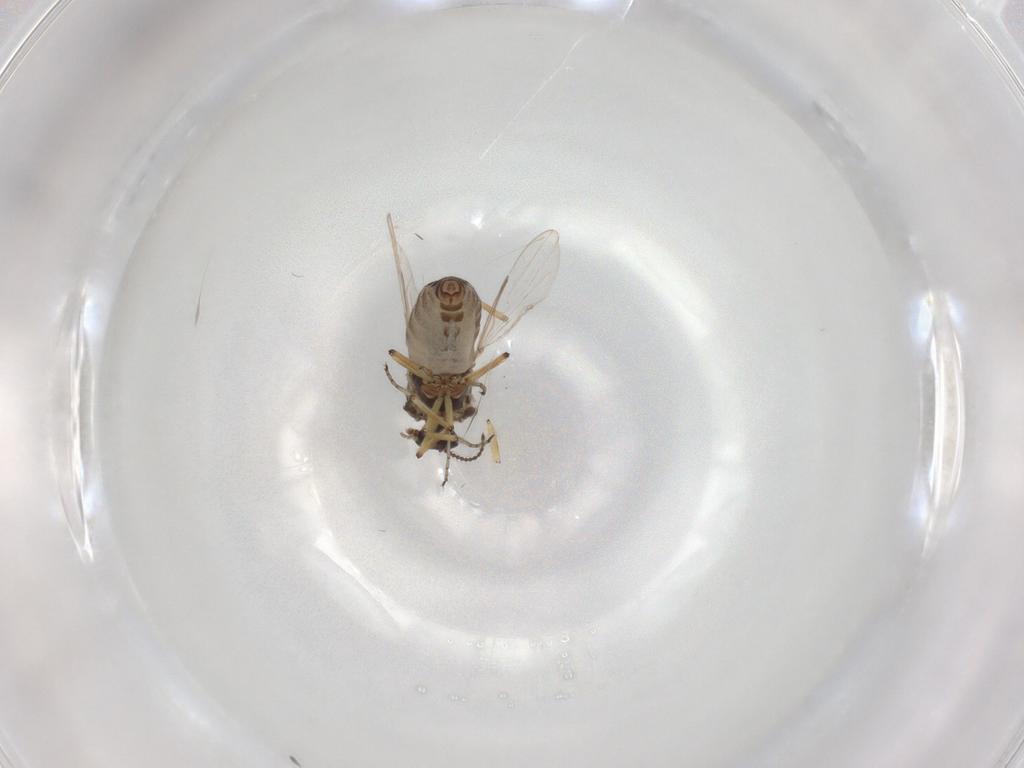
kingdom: Animalia
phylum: Arthropoda
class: Insecta
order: Diptera
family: Ceratopogonidae
